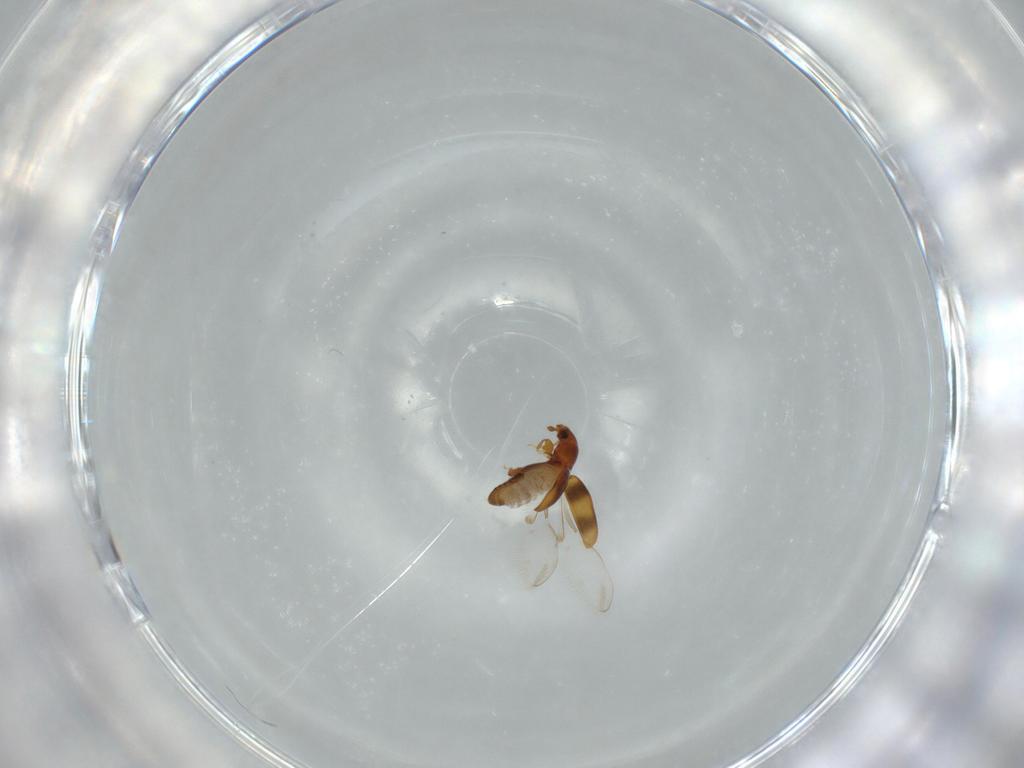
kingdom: Animalia
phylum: Arthropoda
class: Insecta
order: Coleoptera
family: Monotomidae
